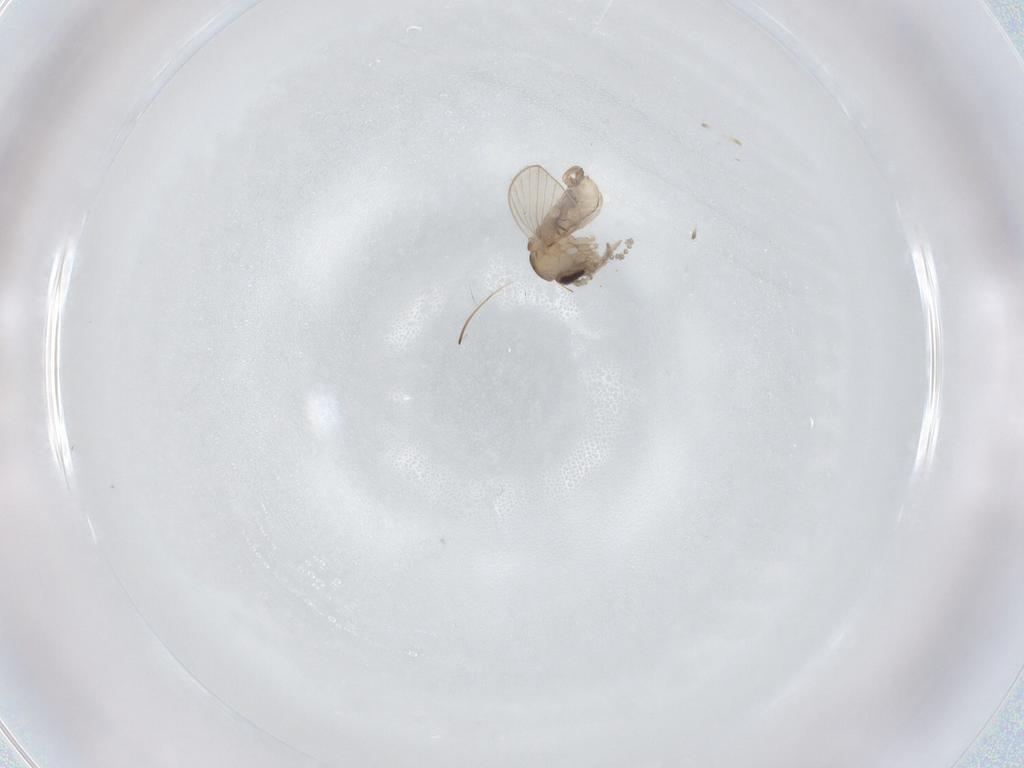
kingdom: Animalia
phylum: Arthropoda
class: Insecta
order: Diptera
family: Psychodidae
